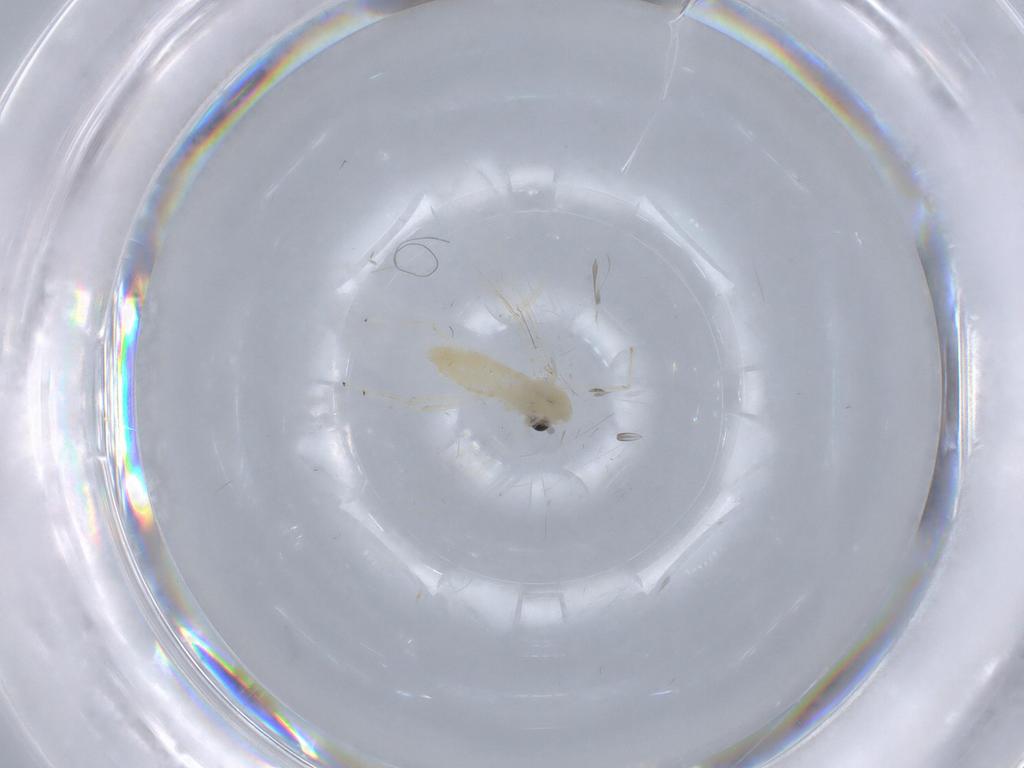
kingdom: Animalia
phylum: Arthropoda
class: Insecta
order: Diptera
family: Chironomidae
